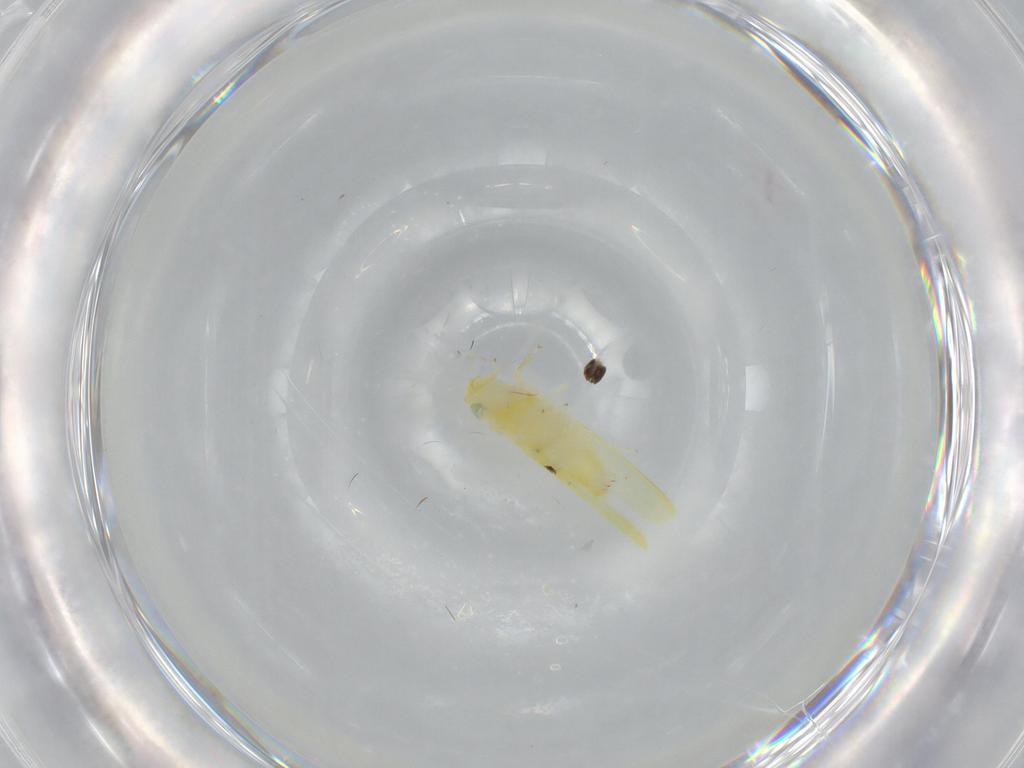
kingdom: Animalia
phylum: Arthropoda
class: Insecta
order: Hemiptera
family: Cicadellidae
